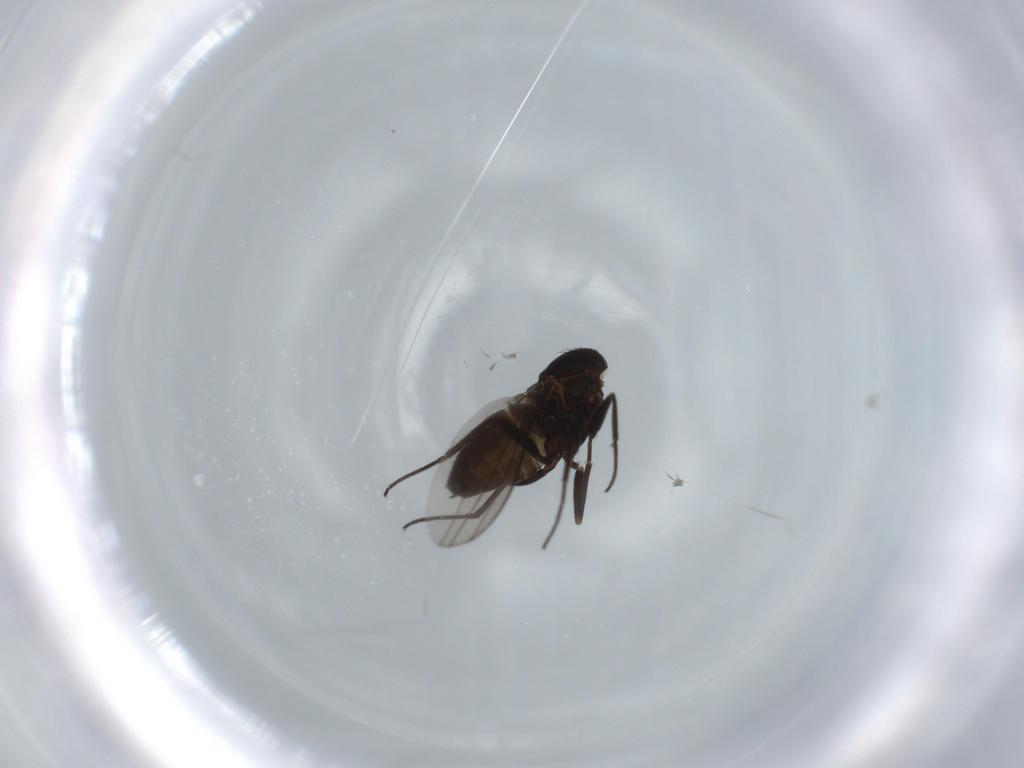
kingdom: Animalia
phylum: Arthropoda
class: Insecta
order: Diptera
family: Dolichopodidae
